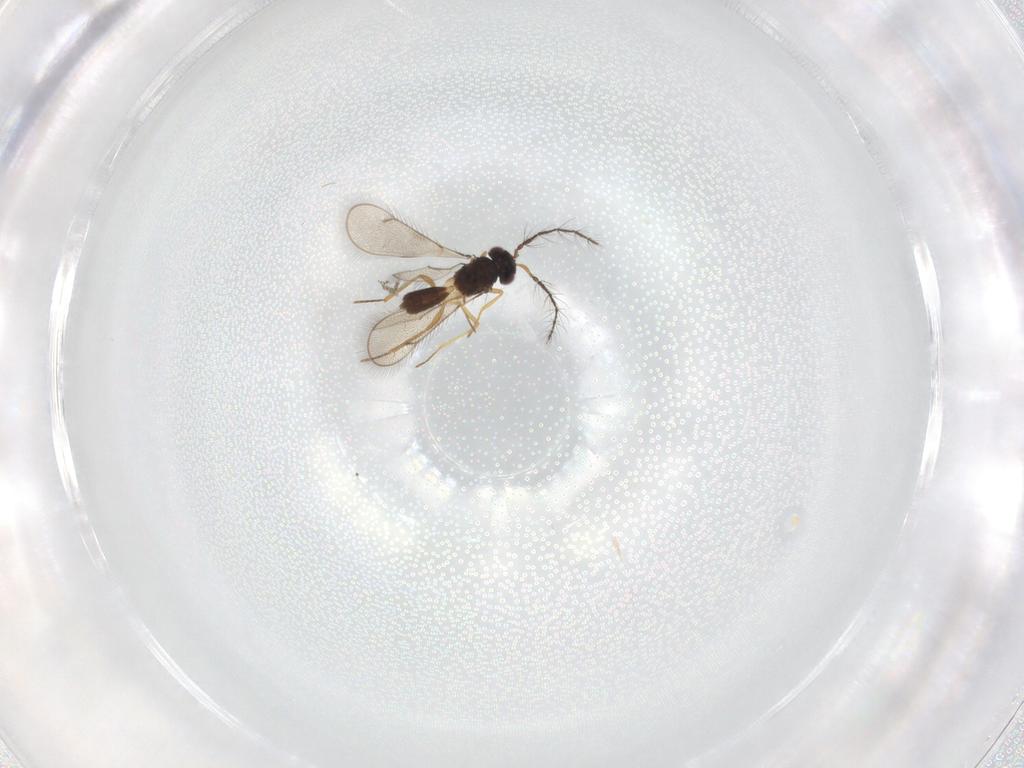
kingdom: Animalia
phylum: Arthropoda
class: Insecta
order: Hymenoptera
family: Eulophidae
